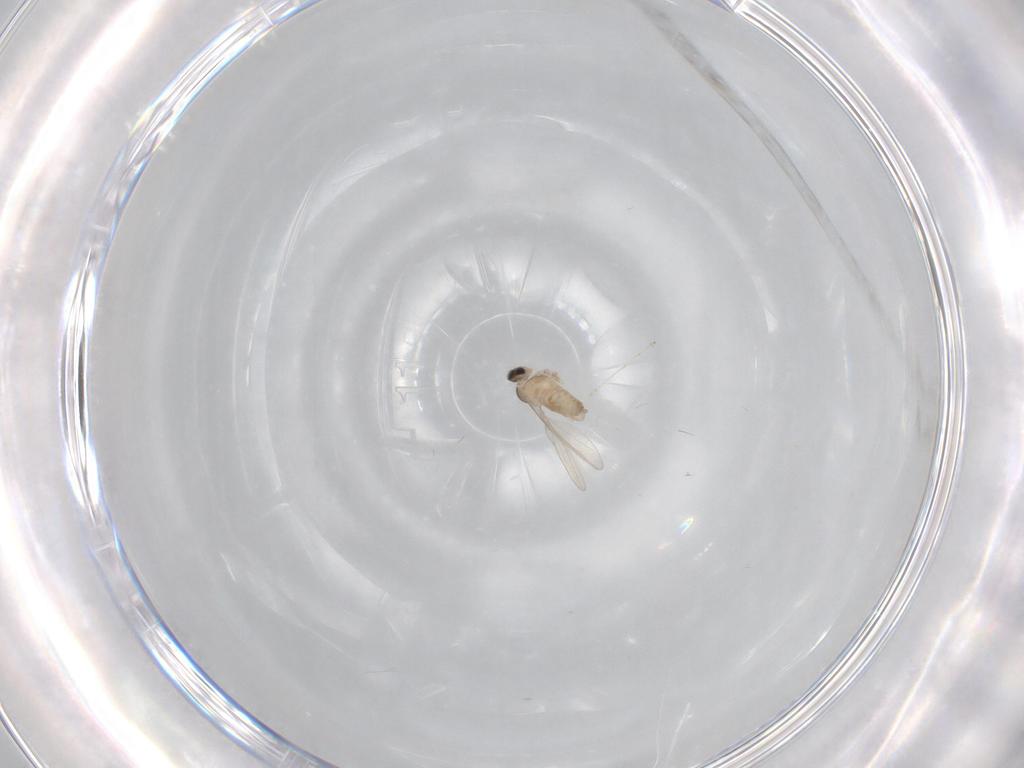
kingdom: Animalia
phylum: Arthropoda
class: Insecta
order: Diptera
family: Cecidomyiidae
